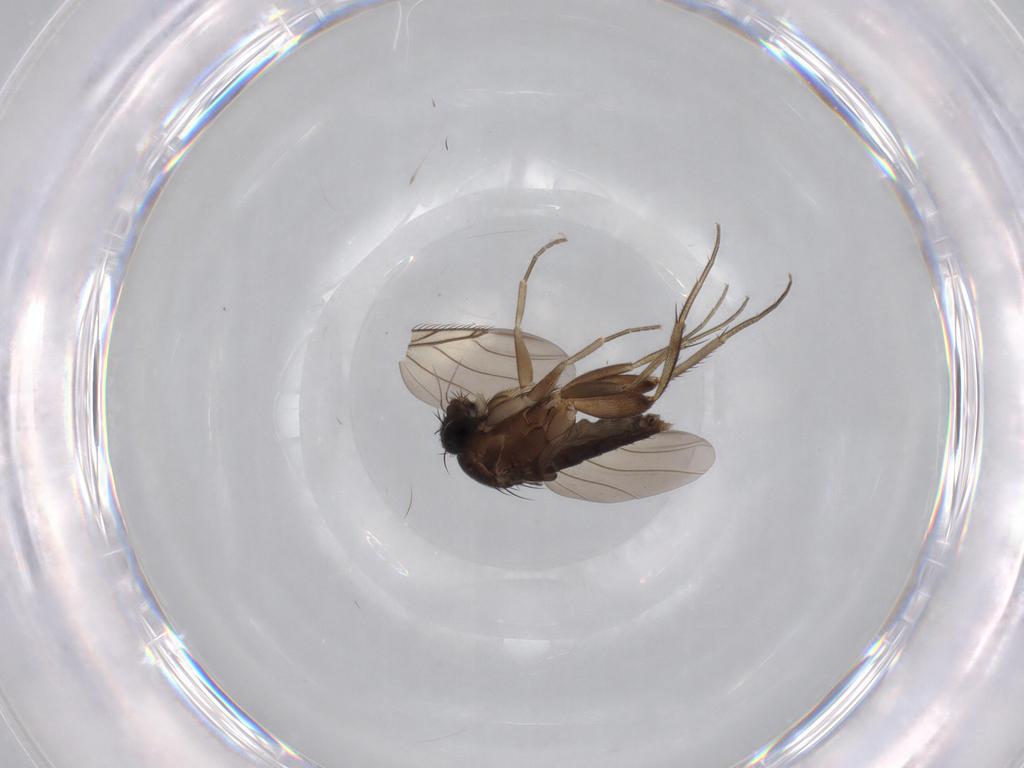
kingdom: Animalia
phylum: Arthropoda
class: Insecta
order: Diptera
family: Phoridae
